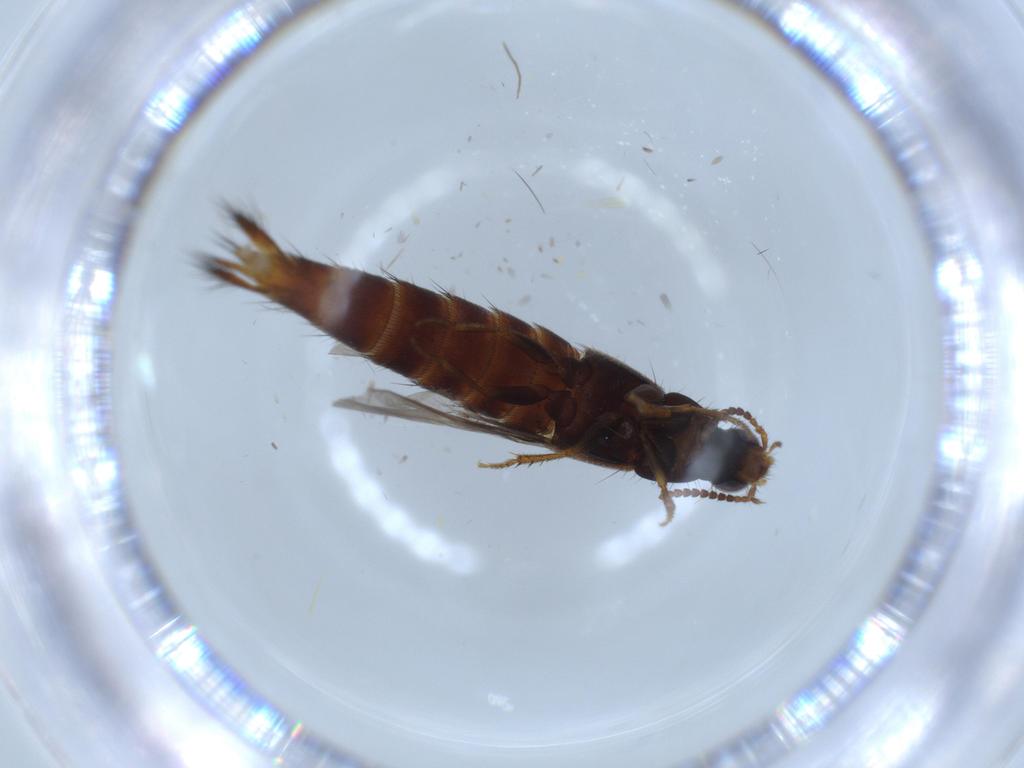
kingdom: Animalia
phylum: Arthropoda
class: Insecta
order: Coleoptera
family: Staphylinidae
